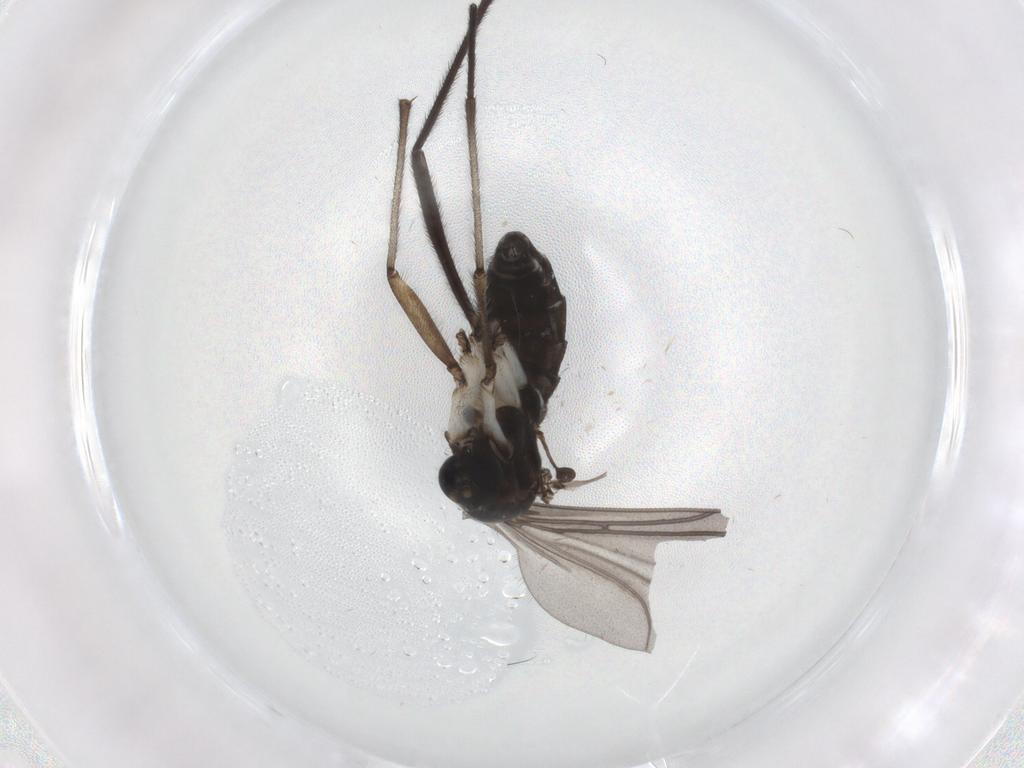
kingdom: Animalia
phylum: Arthropoda
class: Insecta
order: Diptera
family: Sciaridae
